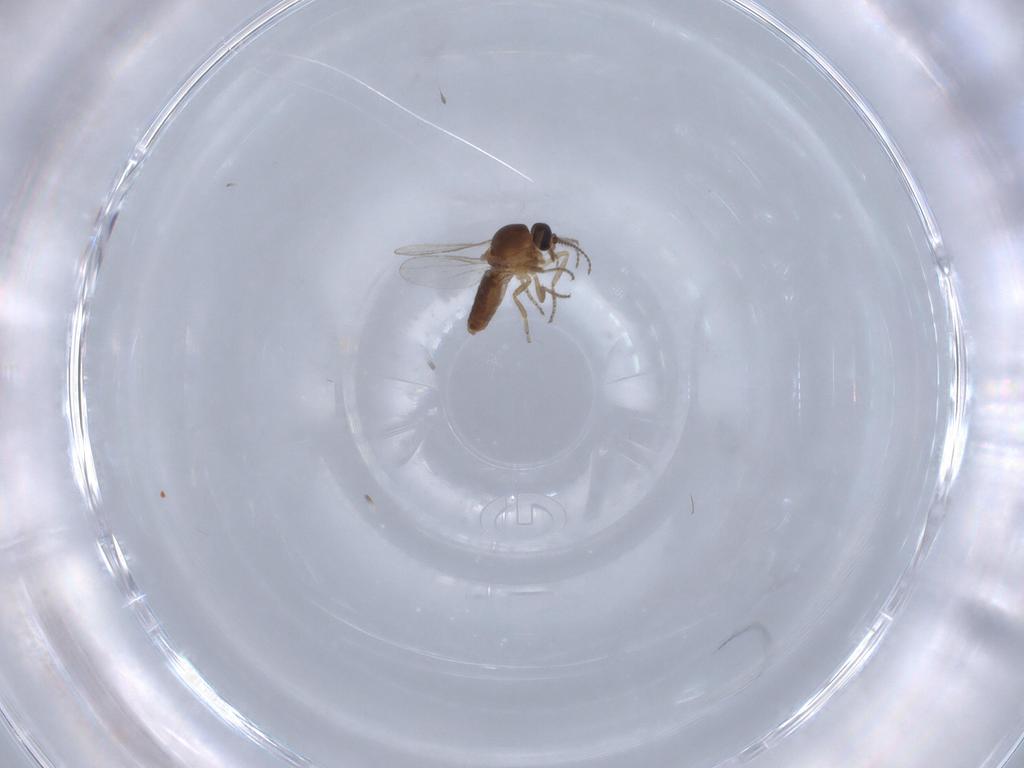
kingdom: Animalia
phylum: Arthropoda
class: Insecta
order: Diptera
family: Ceratopogonidae
